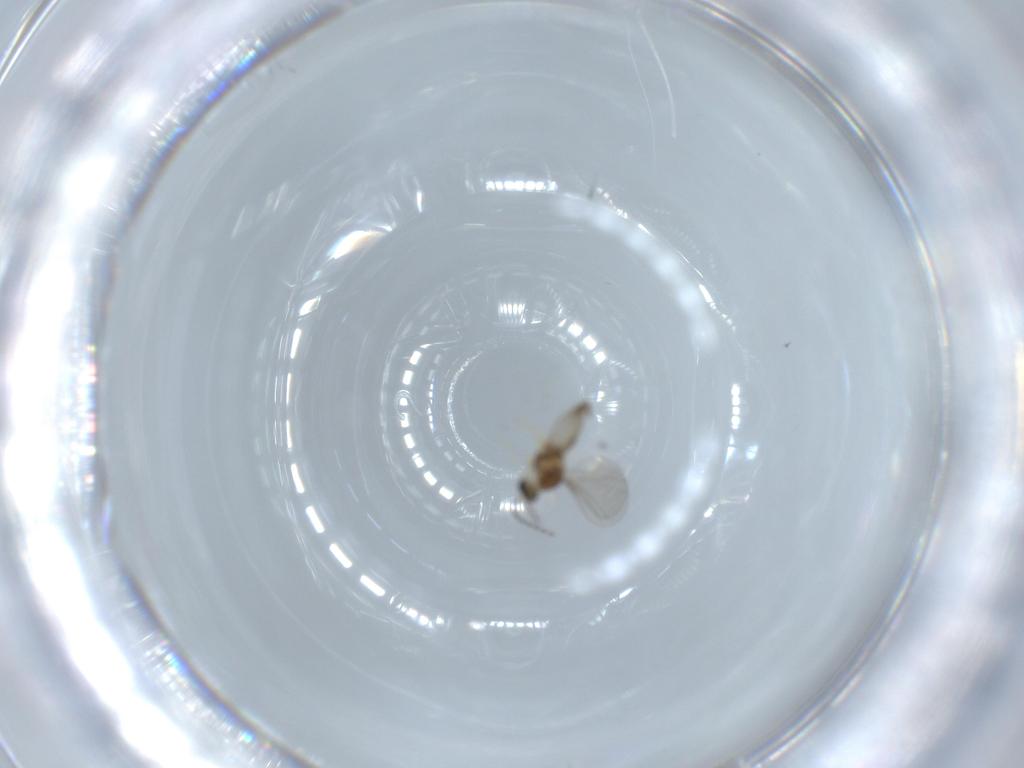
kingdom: Animalia
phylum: Arthropoda
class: Insecta
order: Diptera
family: Cecidomyiidae
